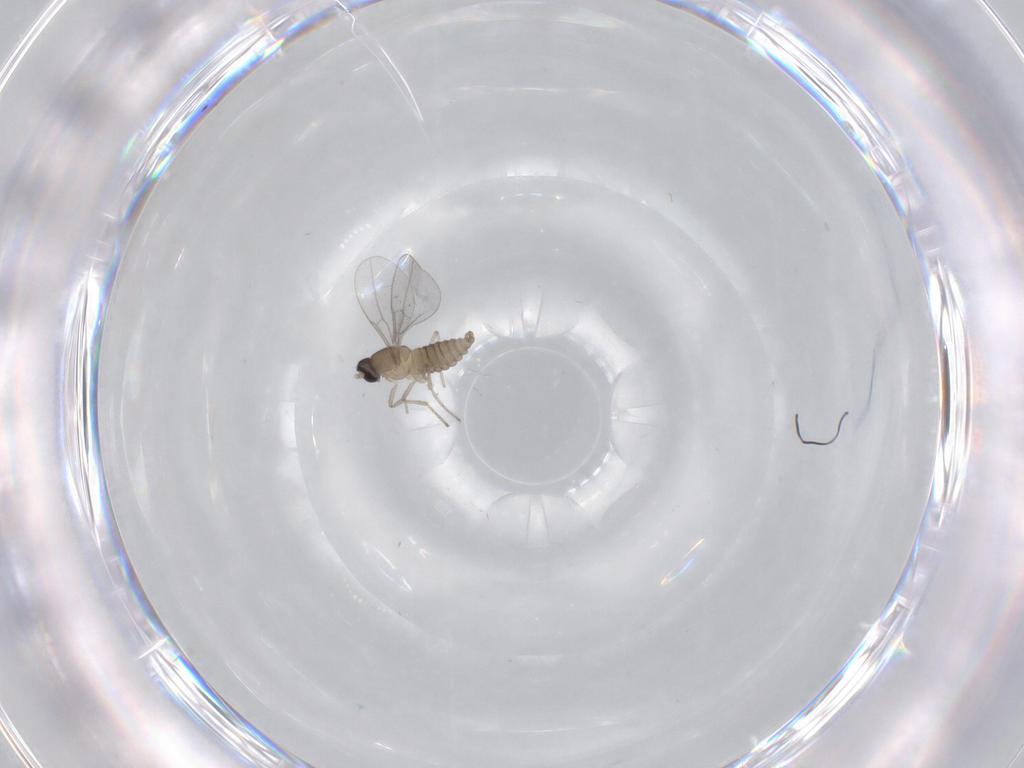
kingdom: Animalia
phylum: Arthropoda
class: Insecta
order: Diptera
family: Cecidomyiidae
